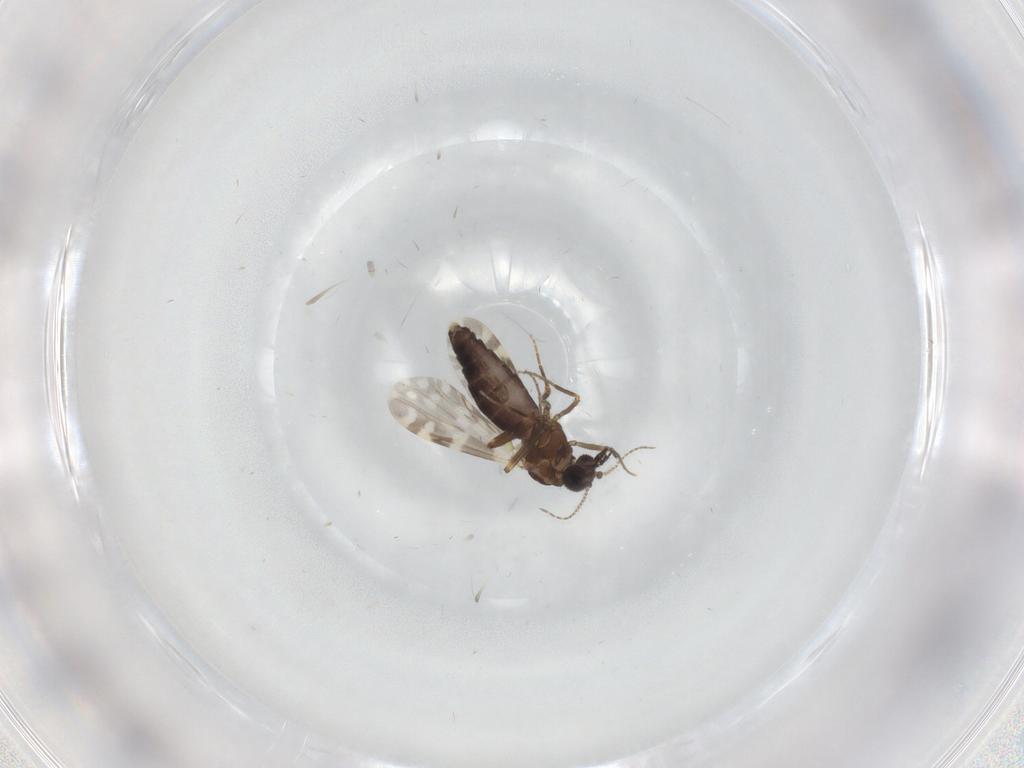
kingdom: Animalia
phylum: Arthropoda
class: Insecta
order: Diptera
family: Ceratopogonidae
